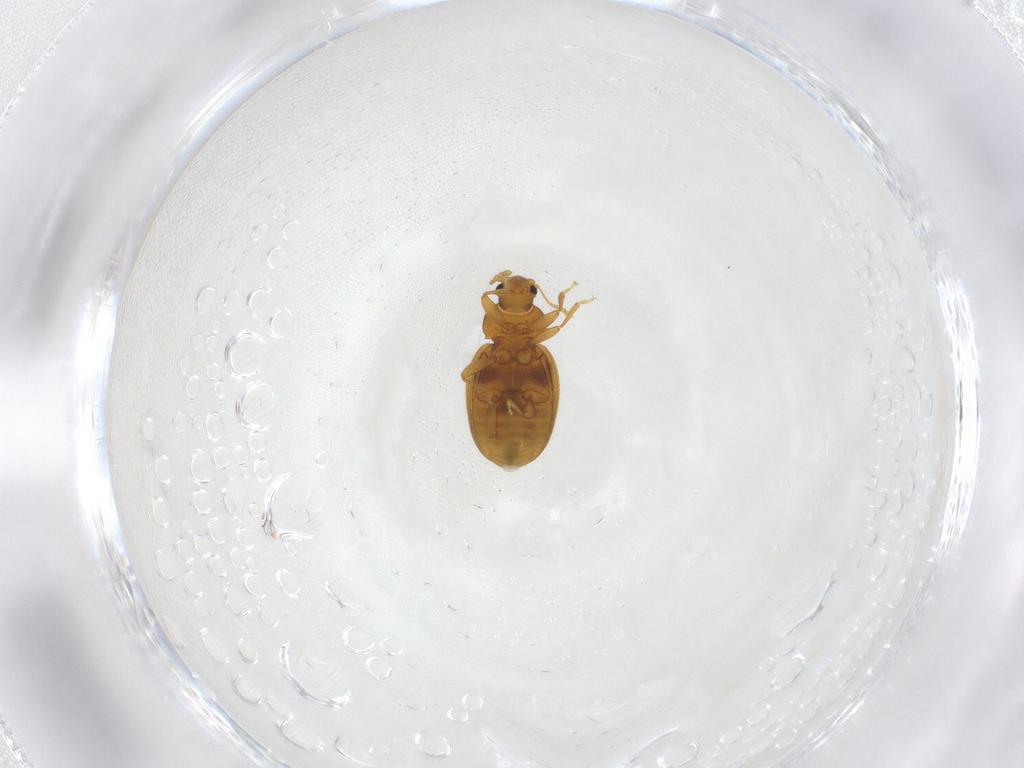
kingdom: Animalia
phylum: Arthropoda
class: Insecta
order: Coleoptera
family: Latridiidae
